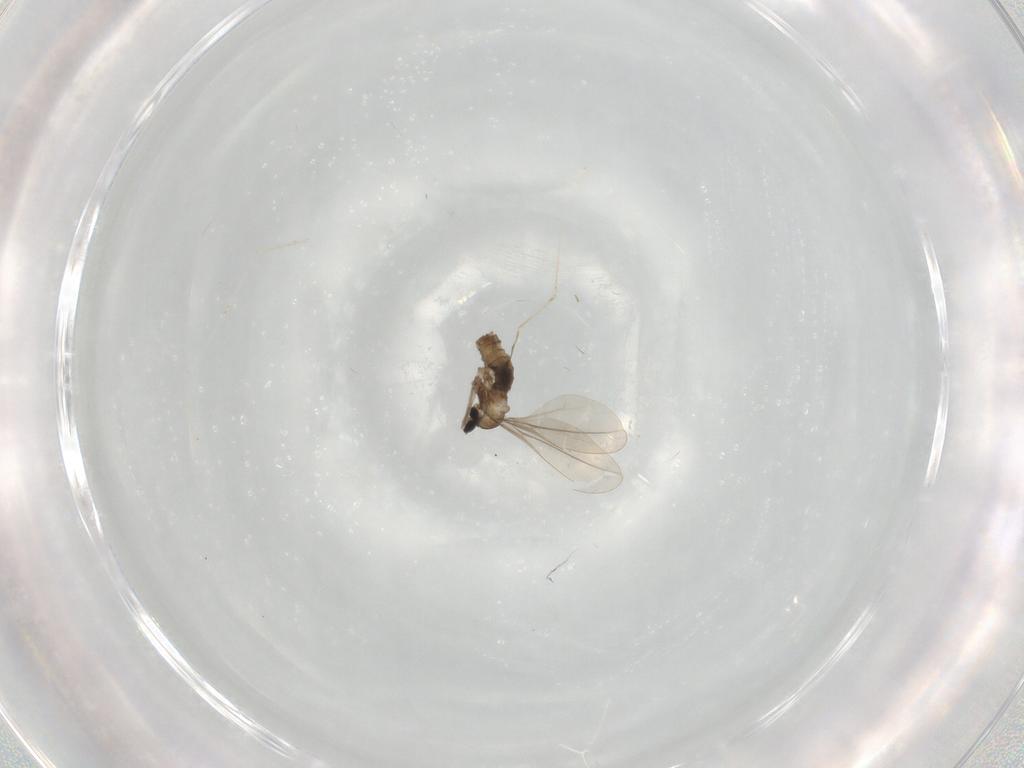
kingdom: Animalia
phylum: Arthropoda
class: Insecta
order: Diptera
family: Cecidomyiidae
